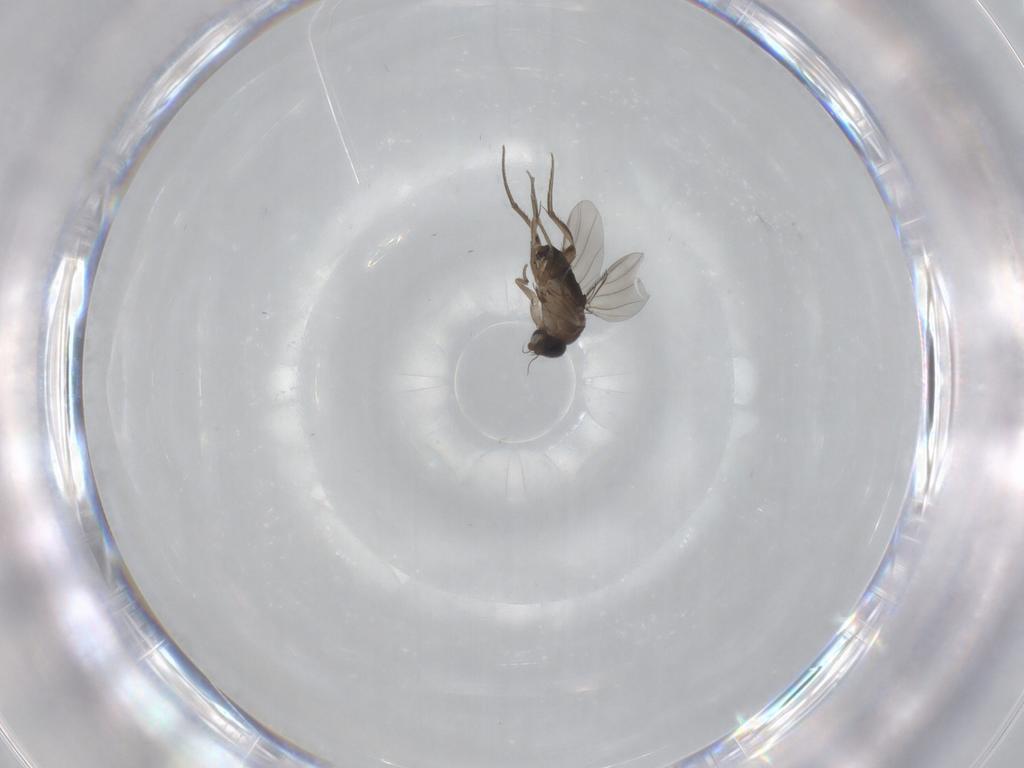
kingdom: Animalia
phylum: Arthropoda
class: Insecta
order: Diptera
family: Phoridae
